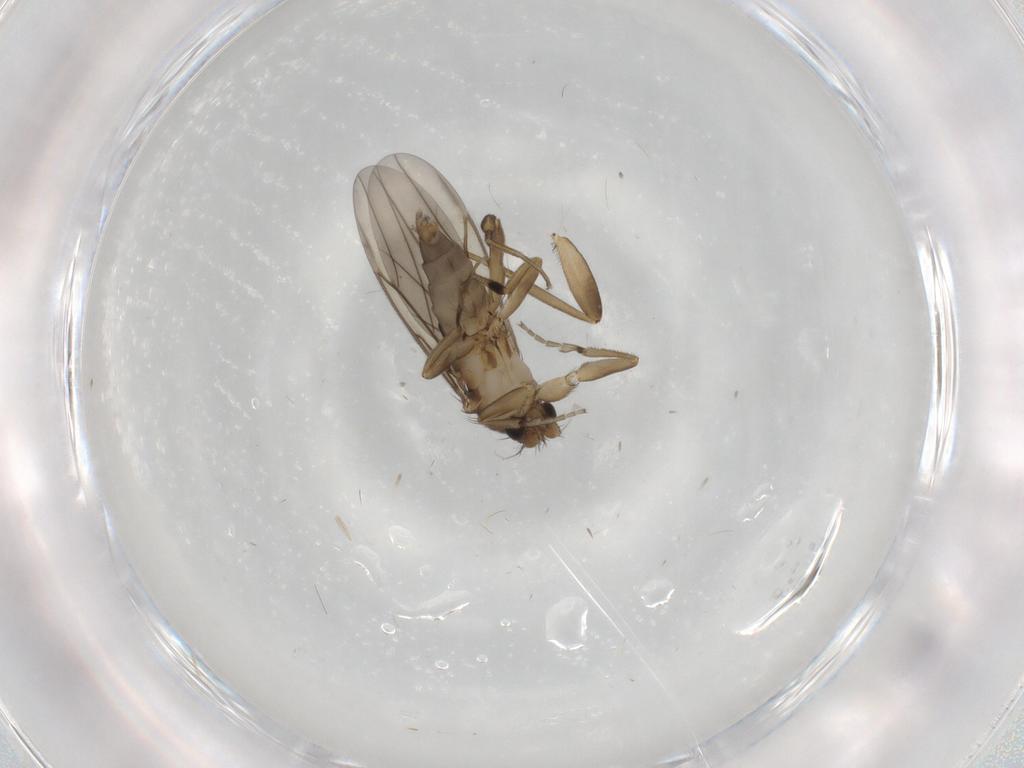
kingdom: Animalia
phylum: Arthropoda
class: Insecta
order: Diptera
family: Phoridae
